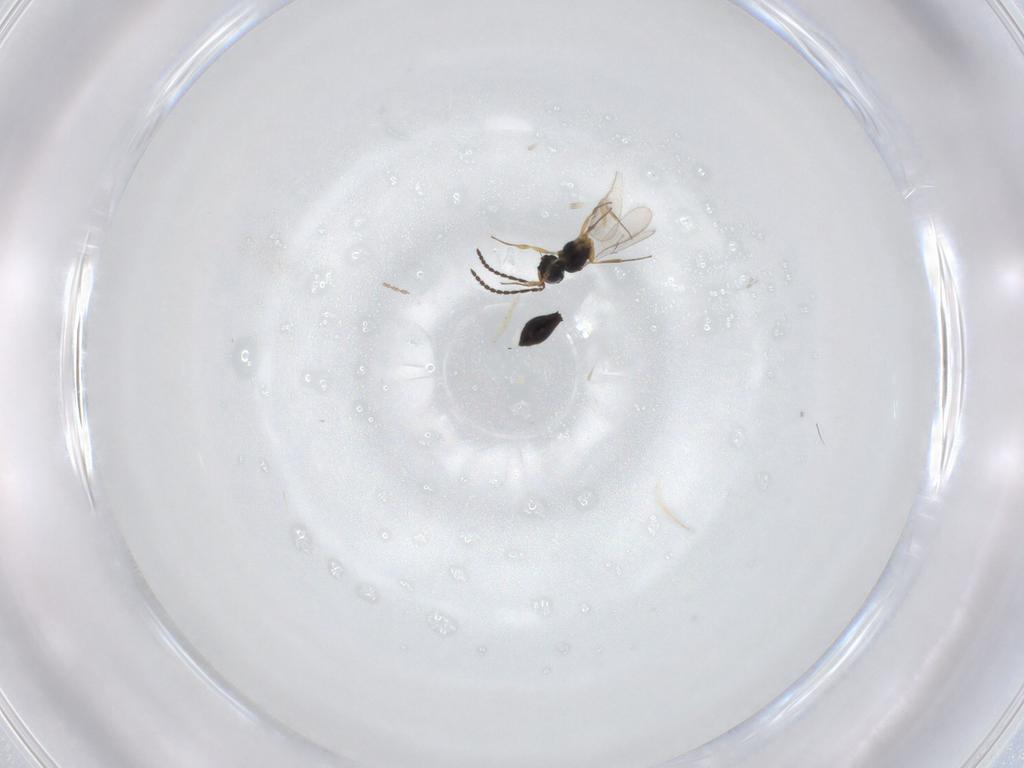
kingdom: Animalia
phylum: Arthropoda
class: Insecta
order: Hymenoptera
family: Scelionidae
